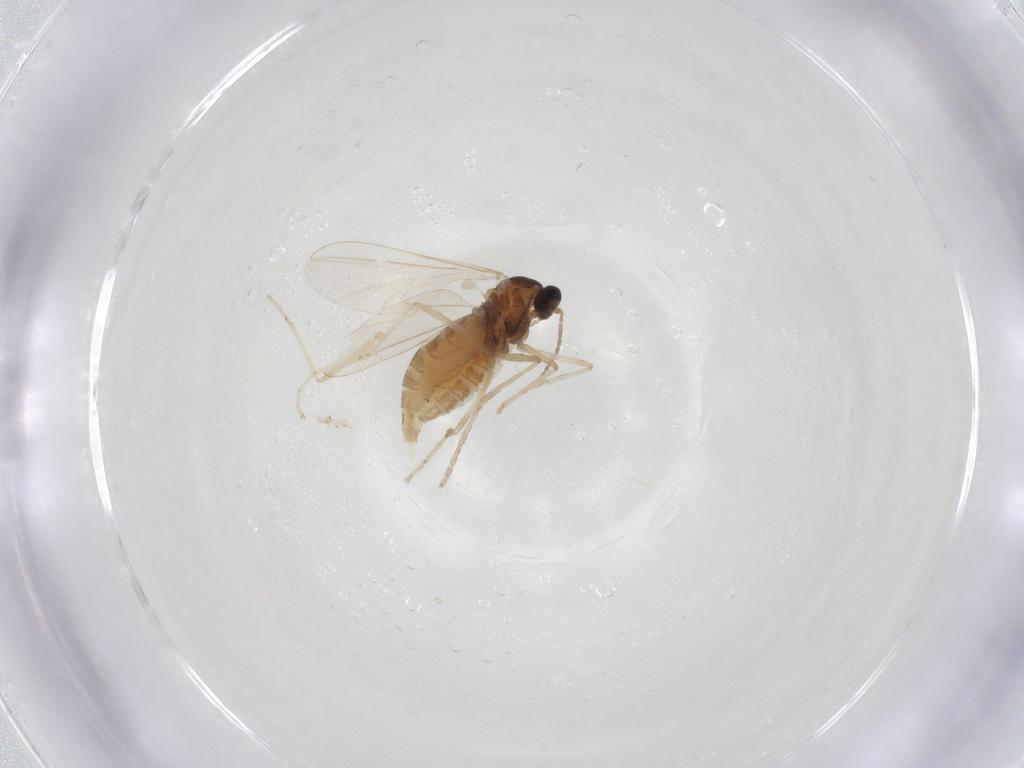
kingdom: Animalia
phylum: Arthropoda
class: Insecta
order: Diptera
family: Cecidomyiidae
